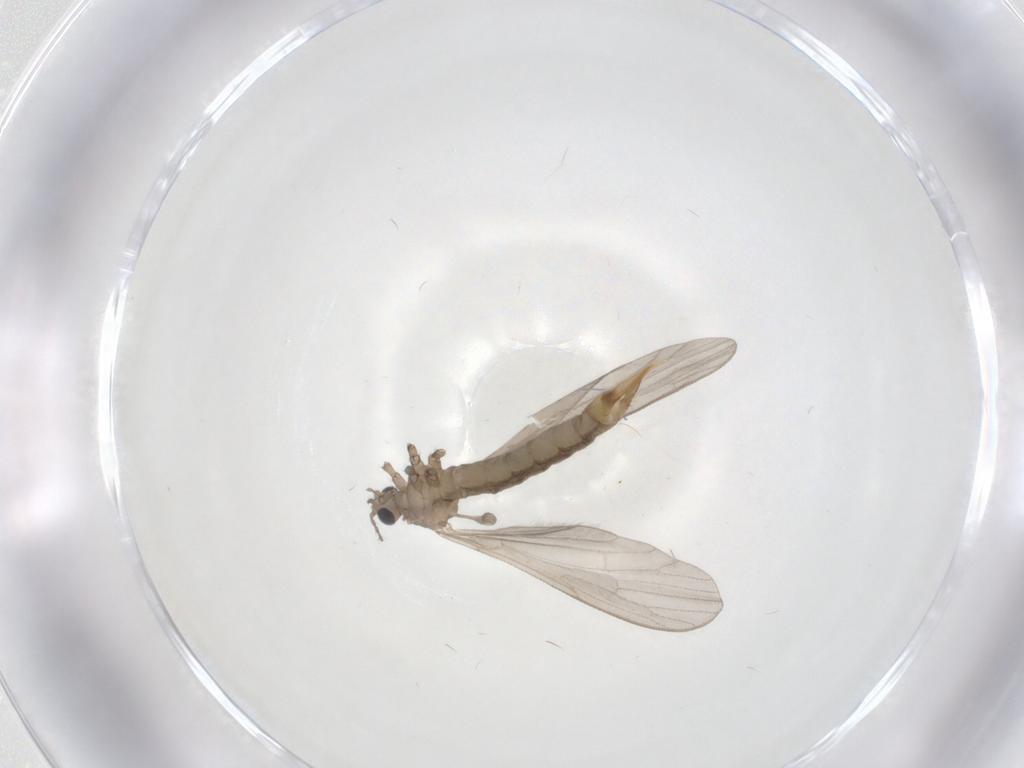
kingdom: Animalia
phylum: Arthropoda
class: Insecta
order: Diptera
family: Limoniidae
